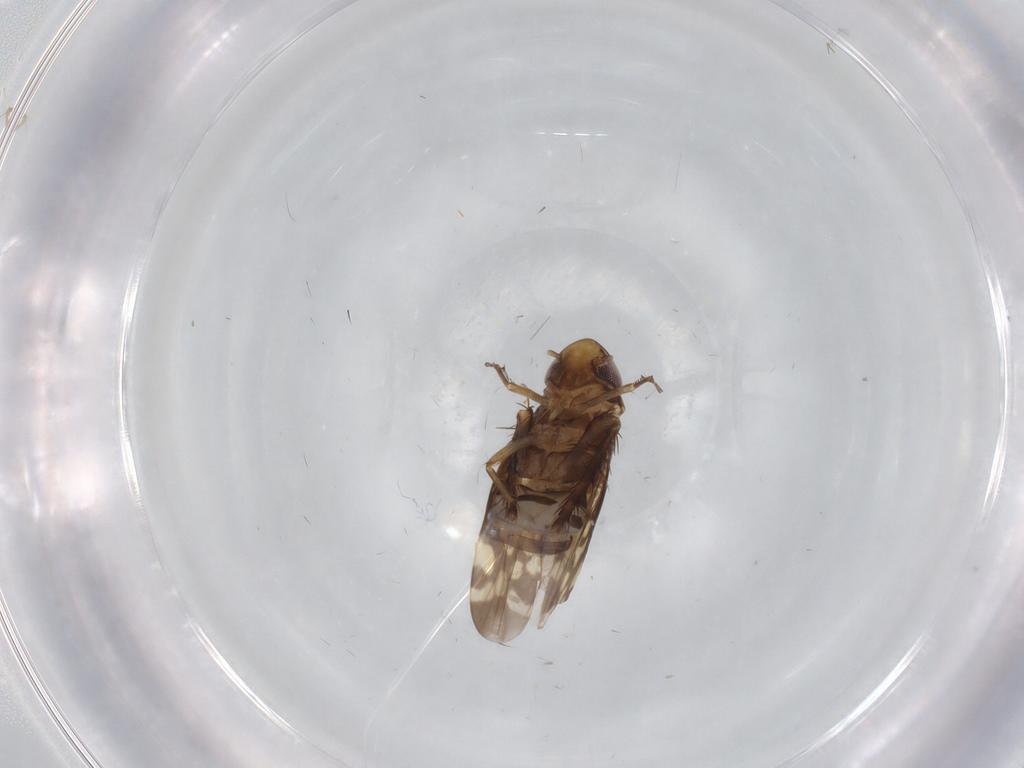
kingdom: Animalia
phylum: Arthropoda
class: Insecta
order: Hemiptera
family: Cicadellidae
